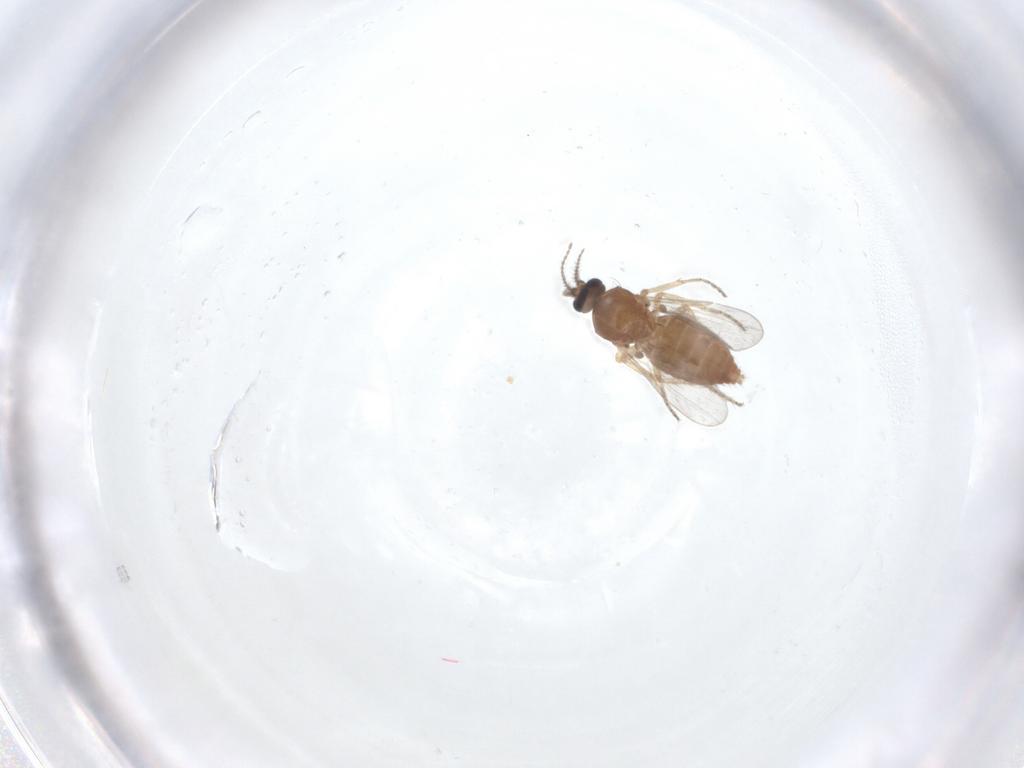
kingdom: Animalia
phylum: Arthropoda
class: Insecta
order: Diptera
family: Ceratopogonidae
